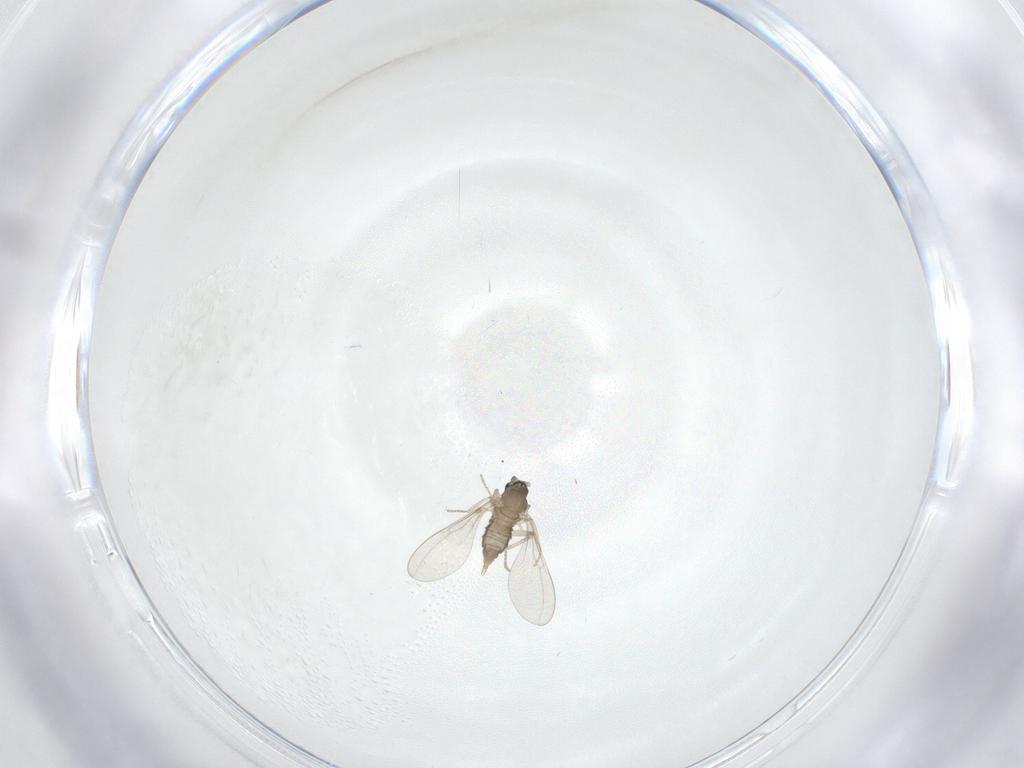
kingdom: Animalia
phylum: Arthropoda
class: Insecta
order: Diptera
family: Cecidomyiidae
